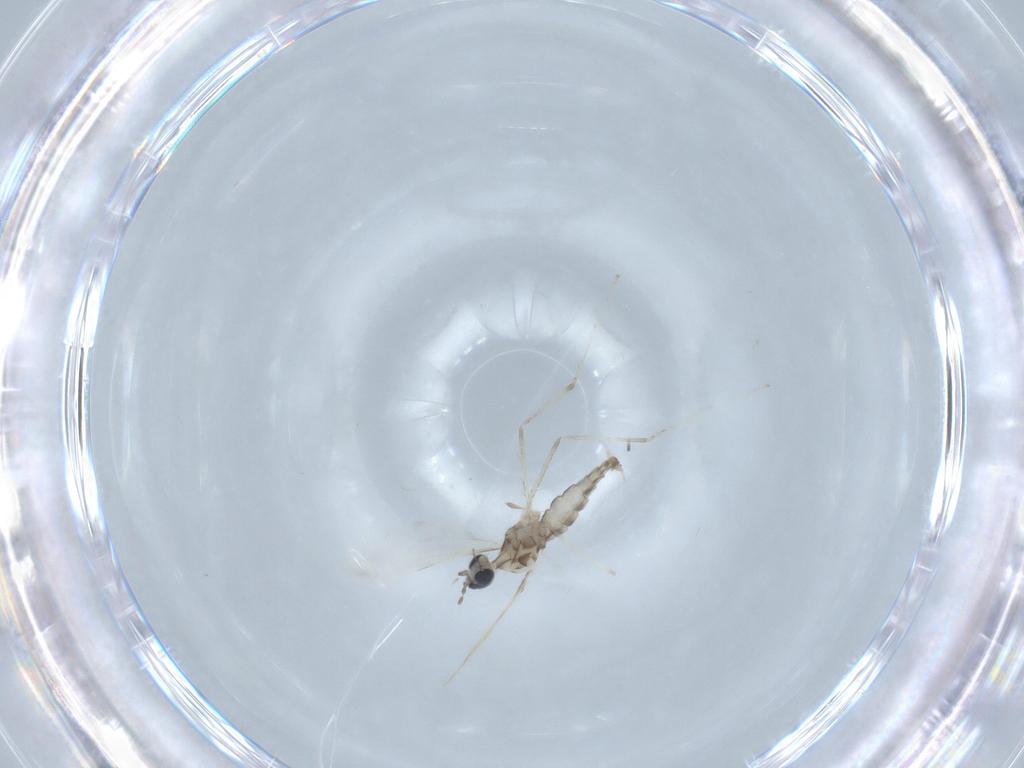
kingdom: Animalia
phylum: Arthropoda
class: Insecta
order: Diptera
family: Cecidomyiidae
